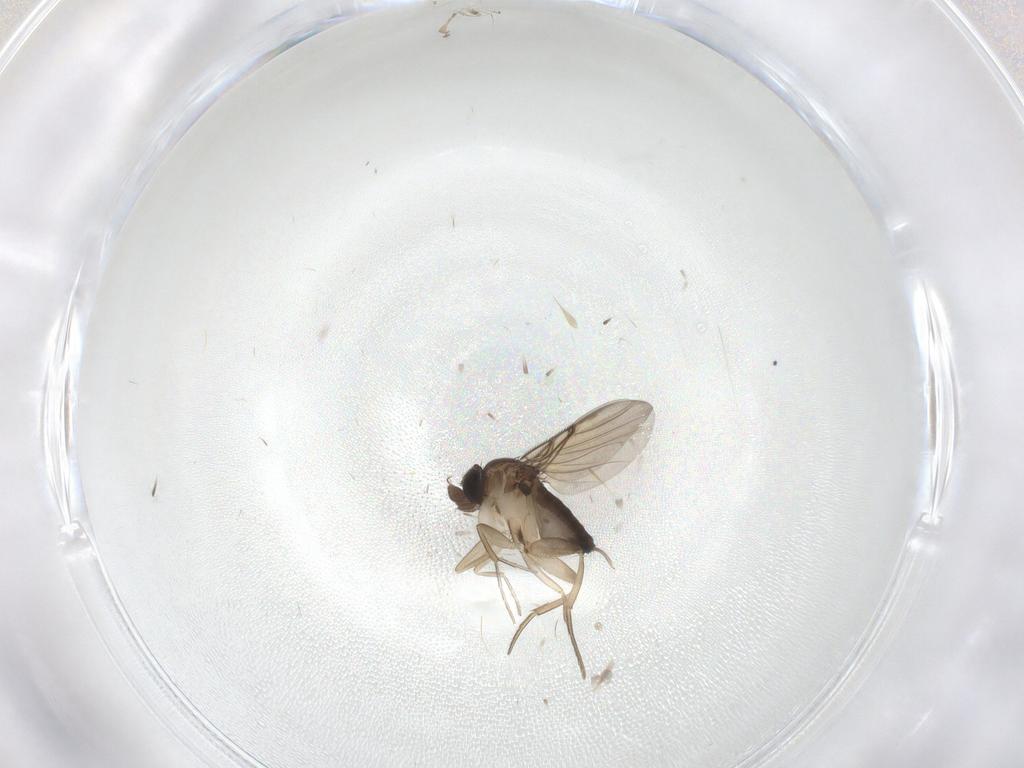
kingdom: Animalia
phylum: Arthropoda
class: Insecta
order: Diptera
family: Phoridae
